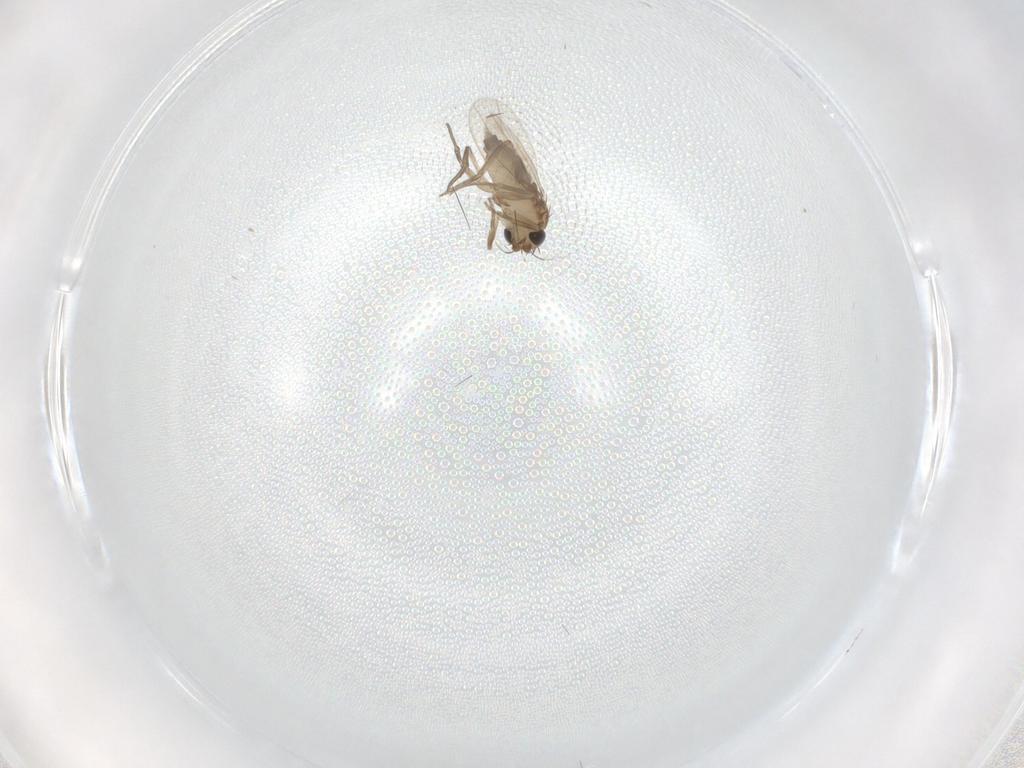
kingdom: Animalia
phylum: Arthropoda
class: Insecta
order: Diptera
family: Phoridae
